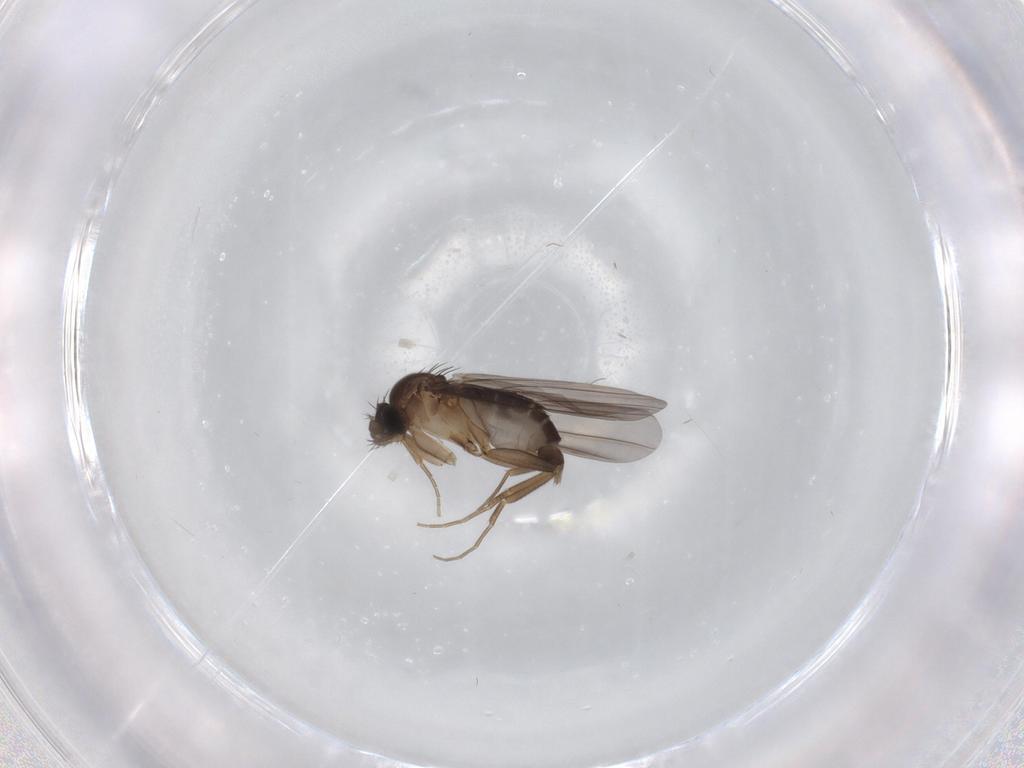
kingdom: Animalia
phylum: Arthropoda
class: Insecta
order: Diptera
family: Phoridae
